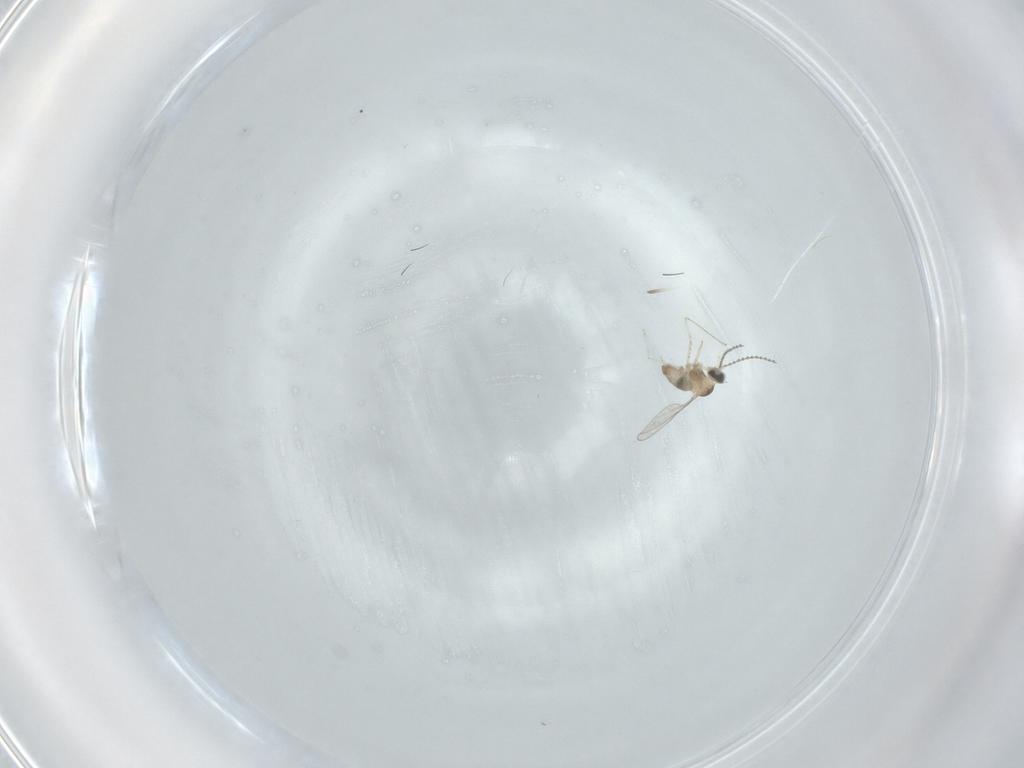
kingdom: Animalia
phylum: Arthropoda
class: Insecta
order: Diptera
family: Cecidomyiidae
